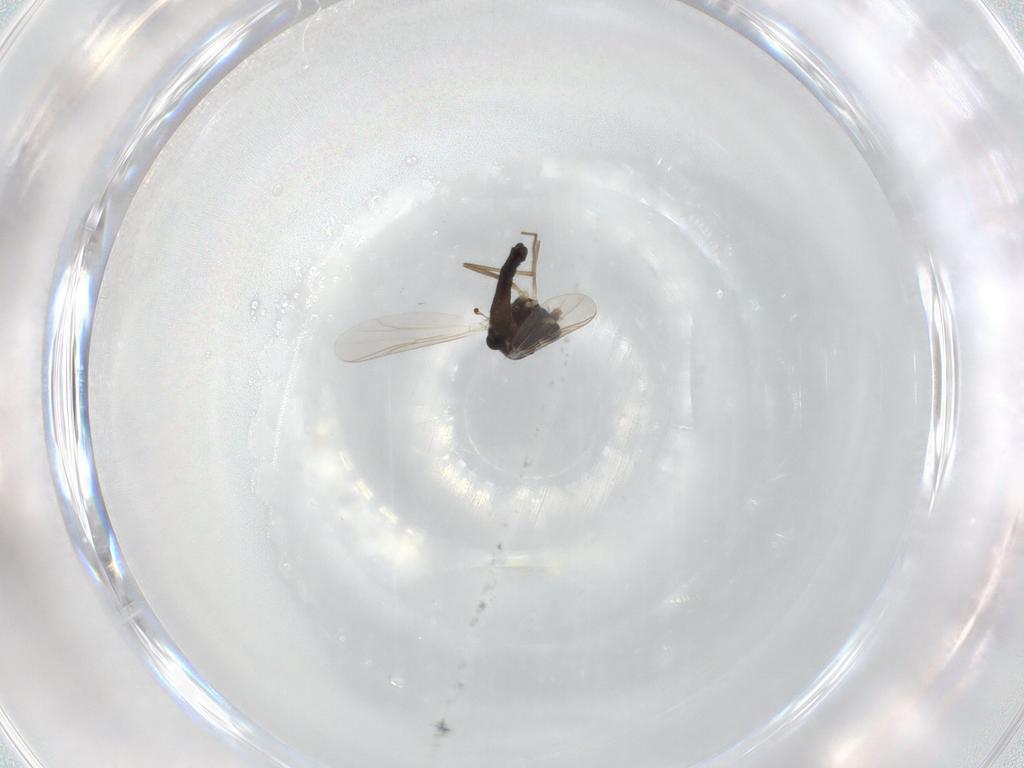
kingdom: Animalia
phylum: Arthropoda
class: Insecta
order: Diptera
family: Chironomidae
